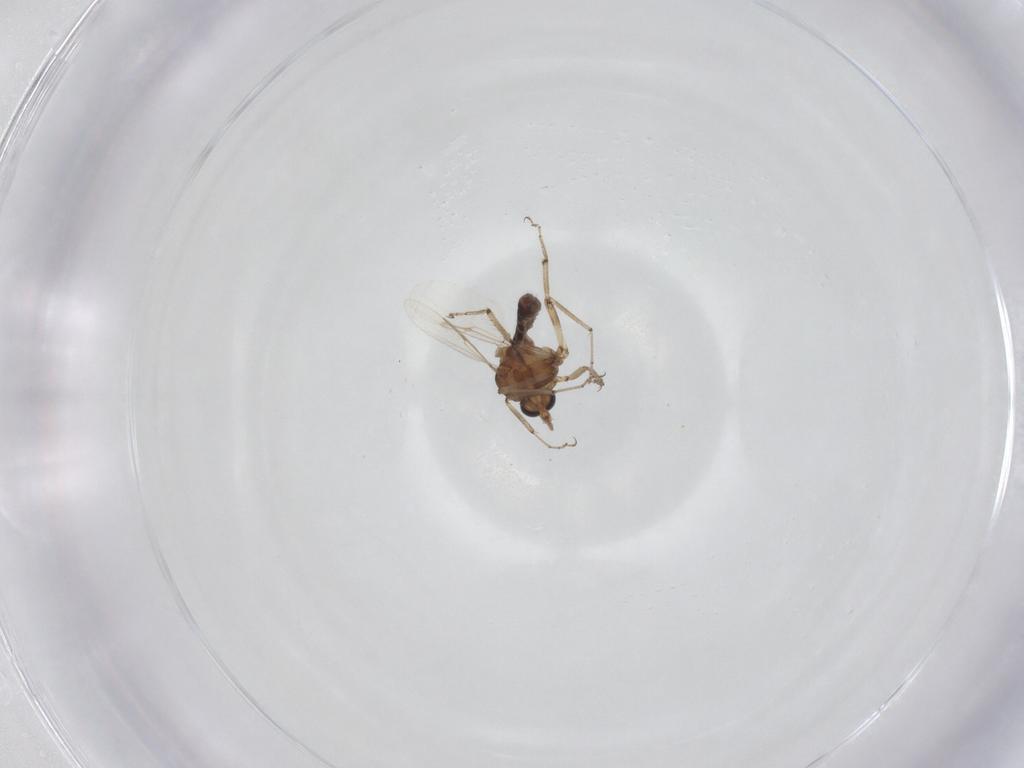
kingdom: Animalia
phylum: Arthropoda
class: Insecta
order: Diptera
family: Ceratopogonidae
